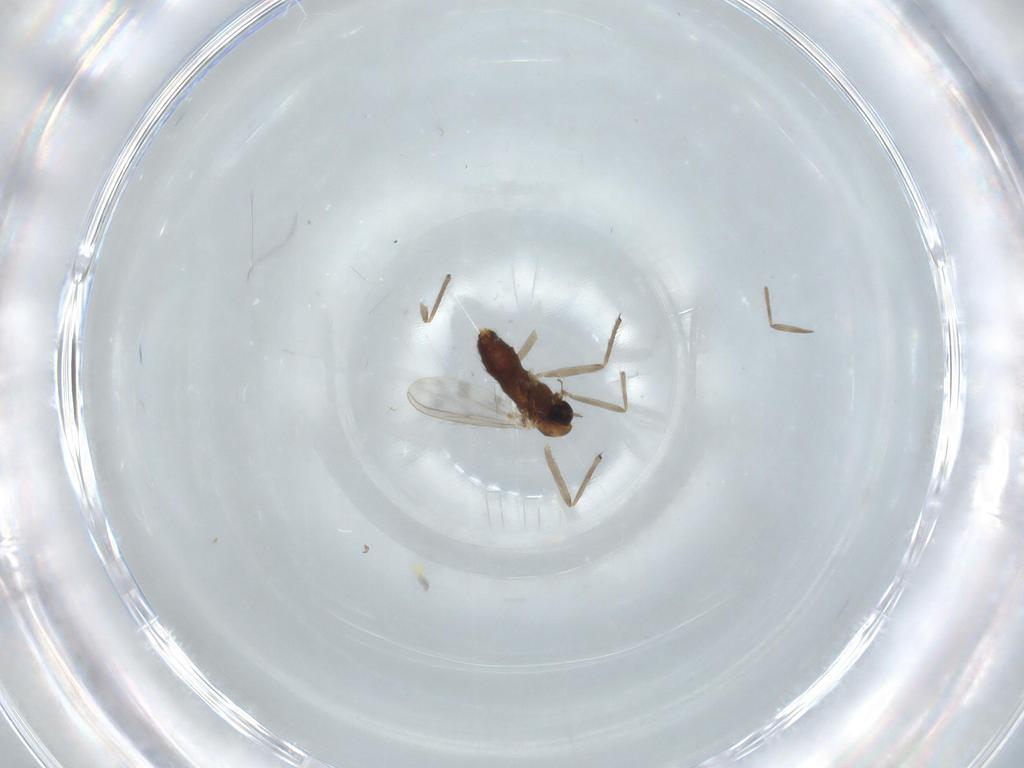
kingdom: Animalia
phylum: Arthropoda
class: Insecta
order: Diptera
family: Chironomidae
